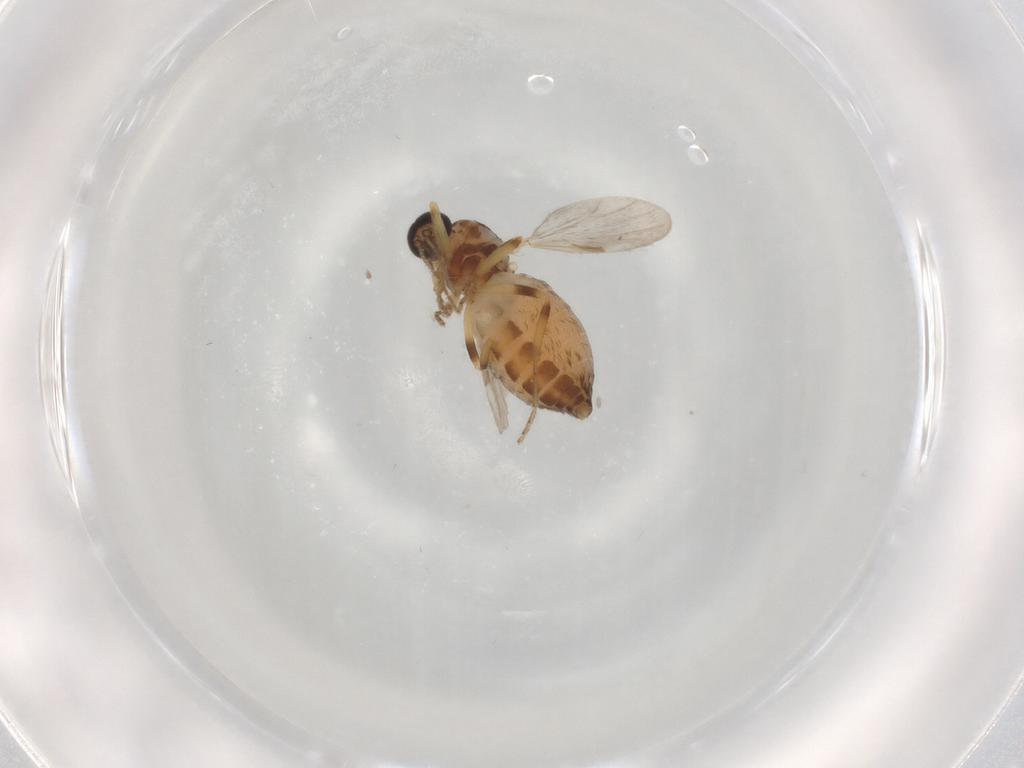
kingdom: Animalia
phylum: Arthropoda
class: Insecta
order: Diptera
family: Ceratopogonidae
